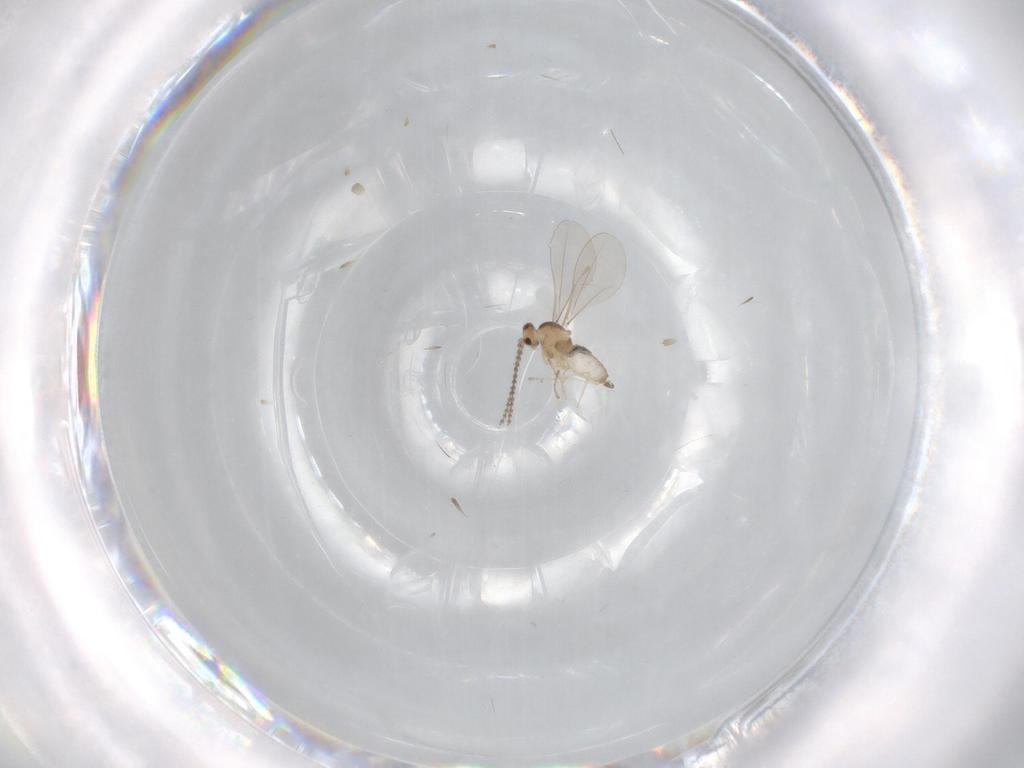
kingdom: Animalia
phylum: Arthropoda
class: Insecta
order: Diptera
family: Cecidomyiidae
